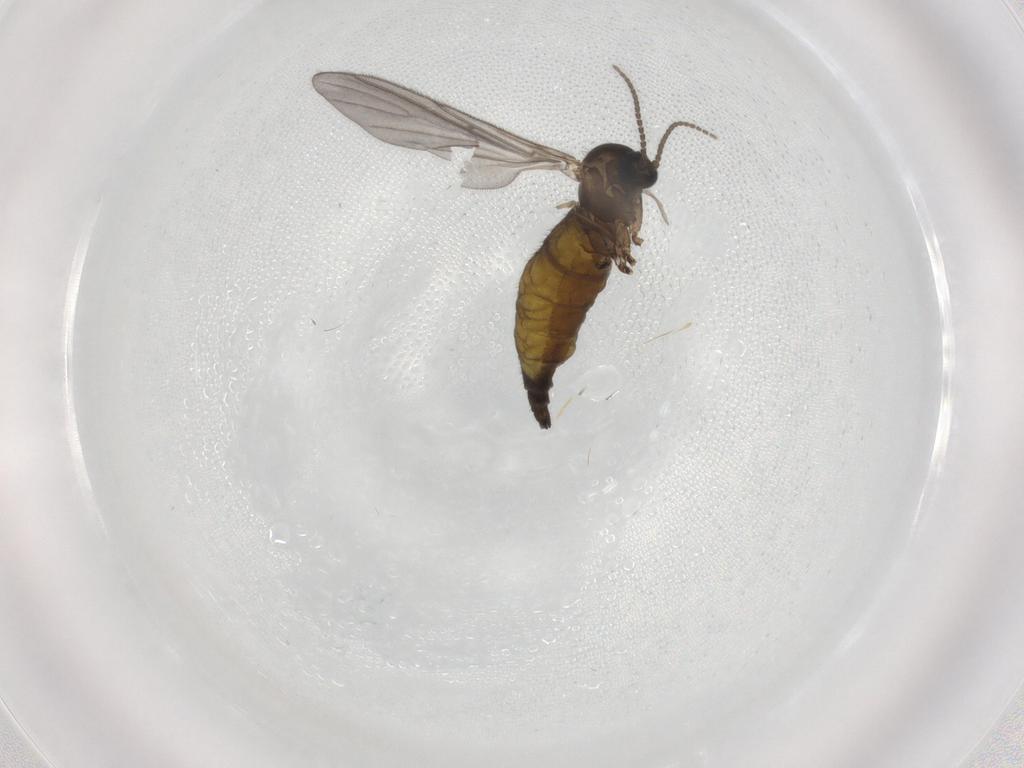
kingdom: Animalia
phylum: Arthropoda
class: Insecta
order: Diptera
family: Sciaridae
